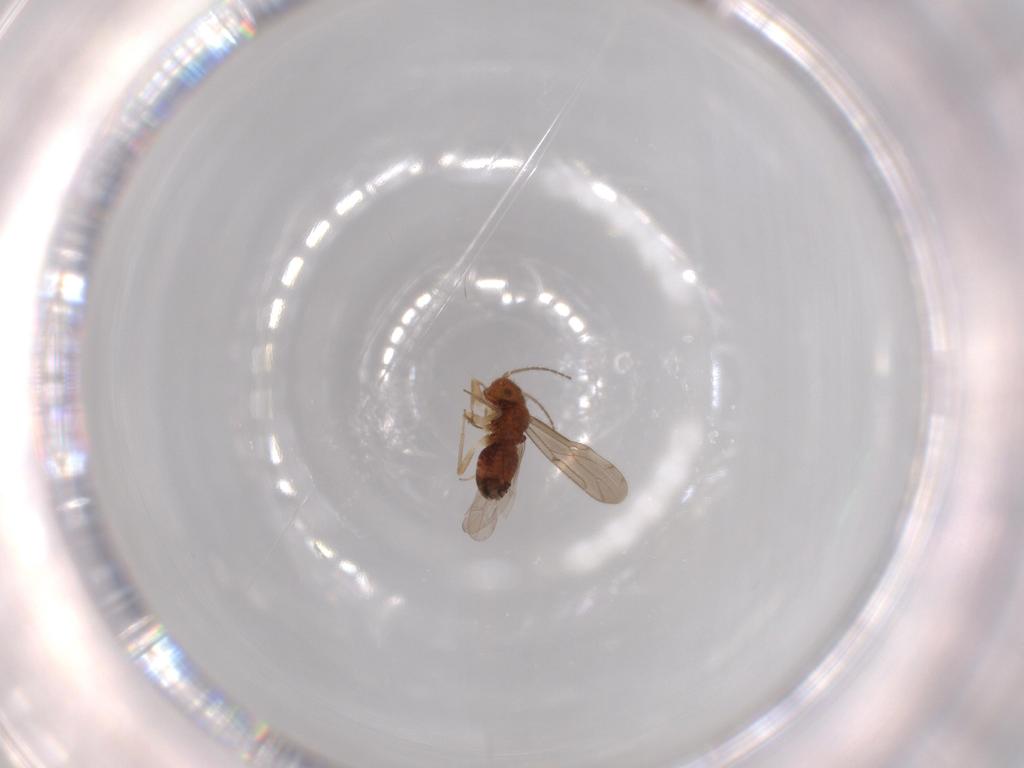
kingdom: Animalia
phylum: Arthropoda
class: Insecta
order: Psocodea
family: Ectopsocidae
